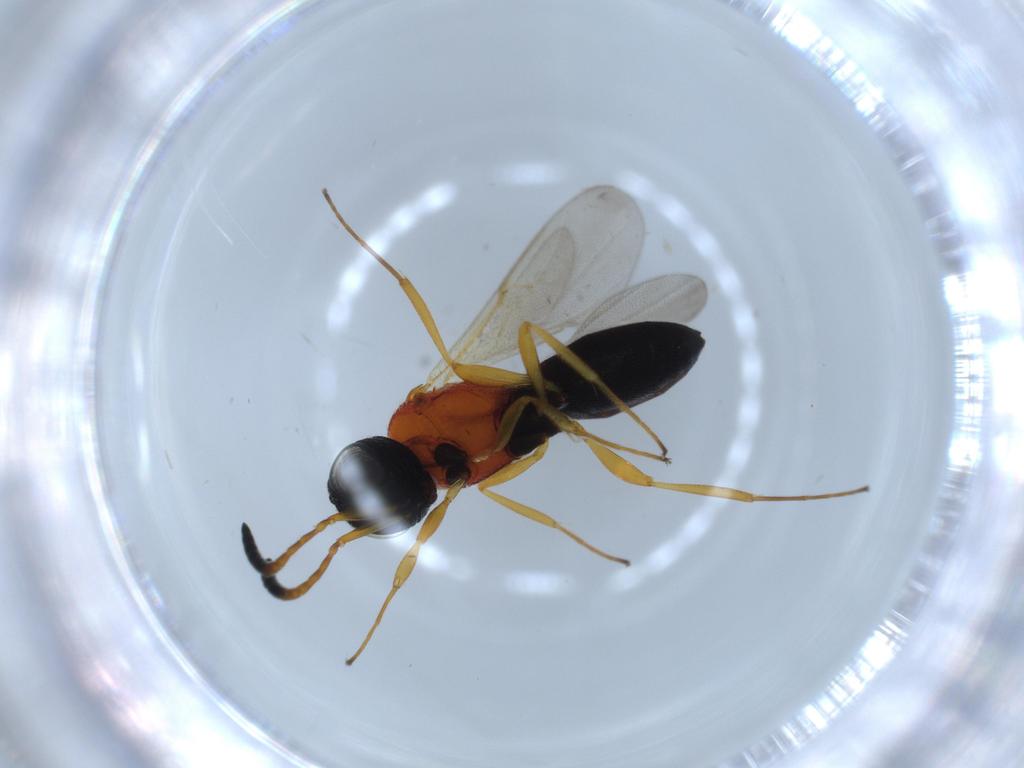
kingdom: Animalia
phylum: Arthropoda
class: Insecta
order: Hymenoptera
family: Scelionidae
